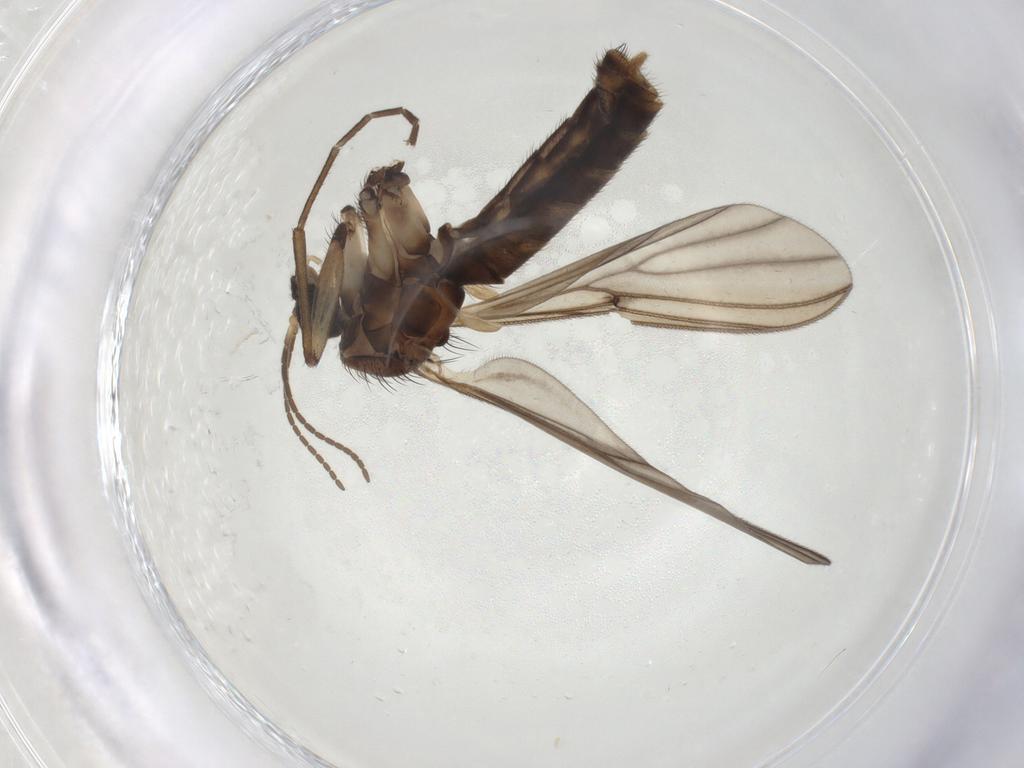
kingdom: Animalia
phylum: Arthropoda
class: Insecta
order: Diptera
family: Mycetophilidae
